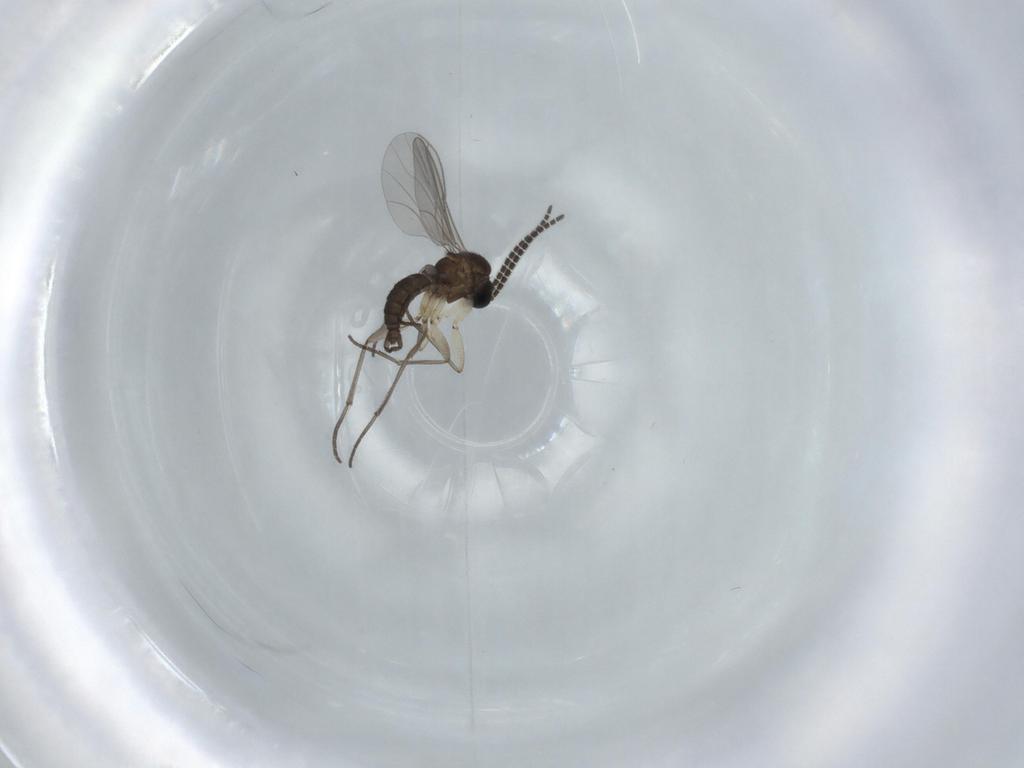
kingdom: Animalia
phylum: Arthropoda
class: Insecta
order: Diptera
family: Sciaridae
